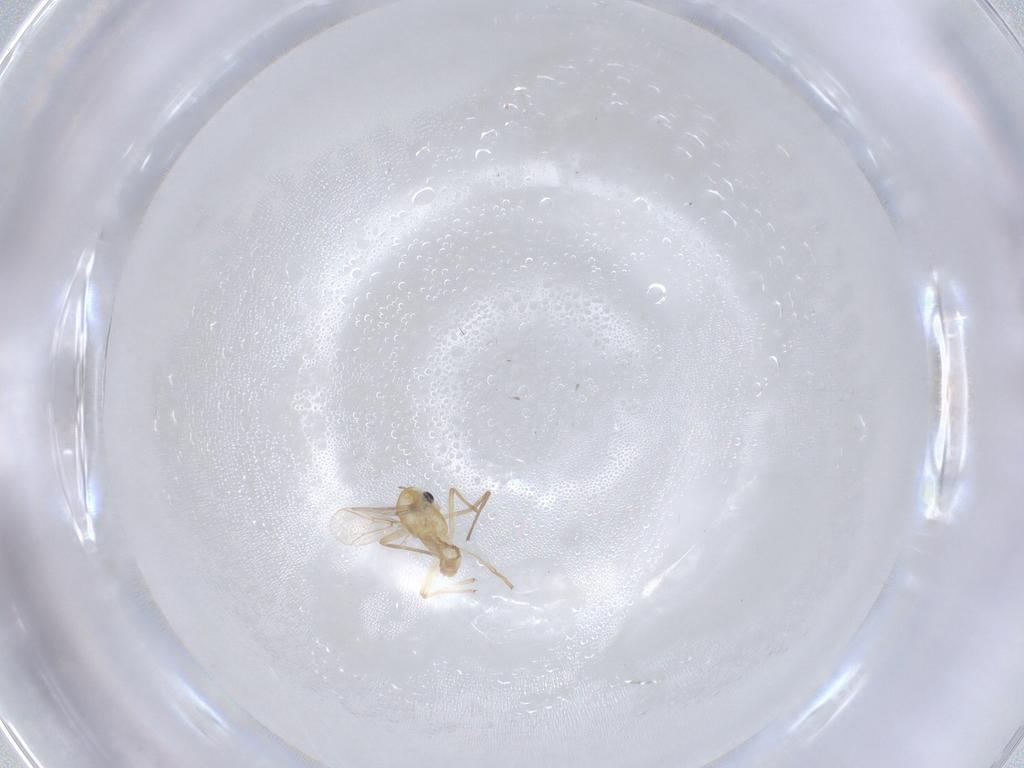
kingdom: Animalia
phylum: Arthropoda
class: Insecta
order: Diptera
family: Chironomidae
